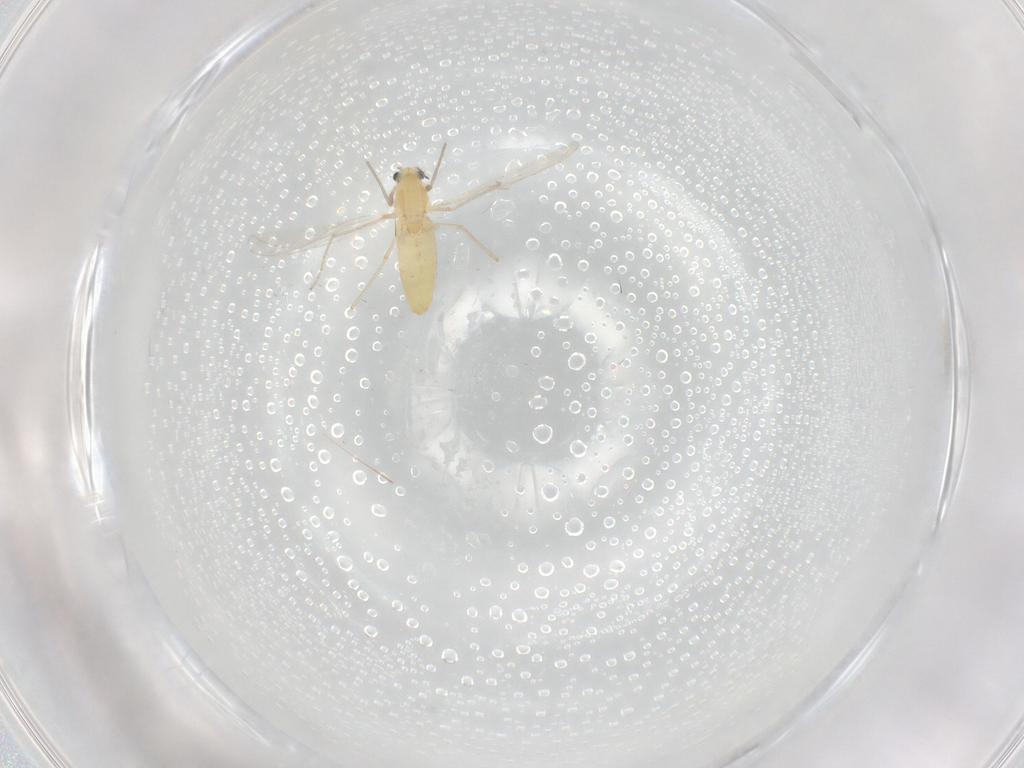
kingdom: Animalia
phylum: Arthropoda
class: Insecta
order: Diptera
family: Chironomidae
